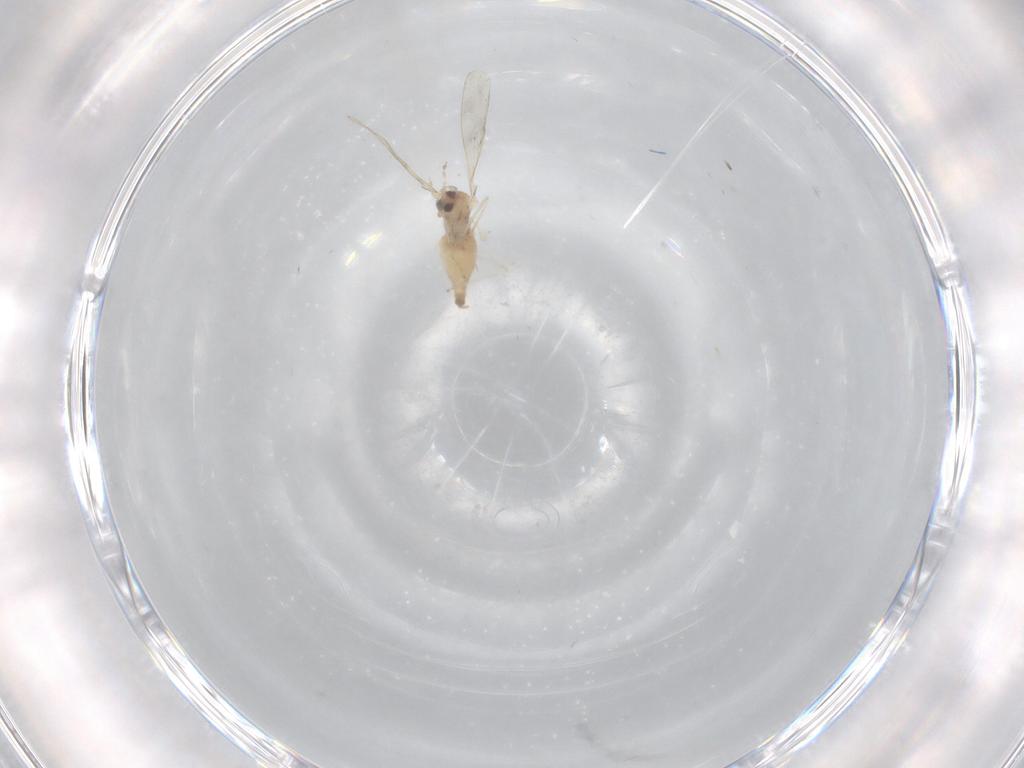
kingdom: Animalia
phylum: Arthropoda
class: Insecta
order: Diptera
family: Cecidomyiidae
